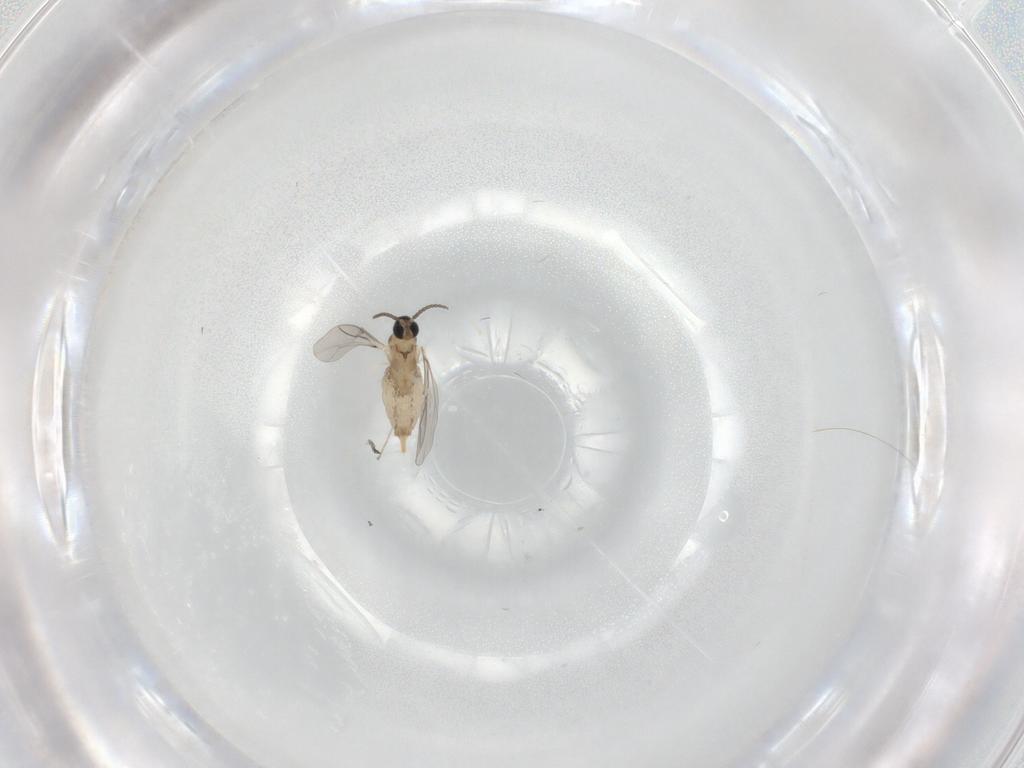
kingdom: Animalia
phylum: Arthropoda
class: Insecta
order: Diptera
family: Cecidomyiidae
